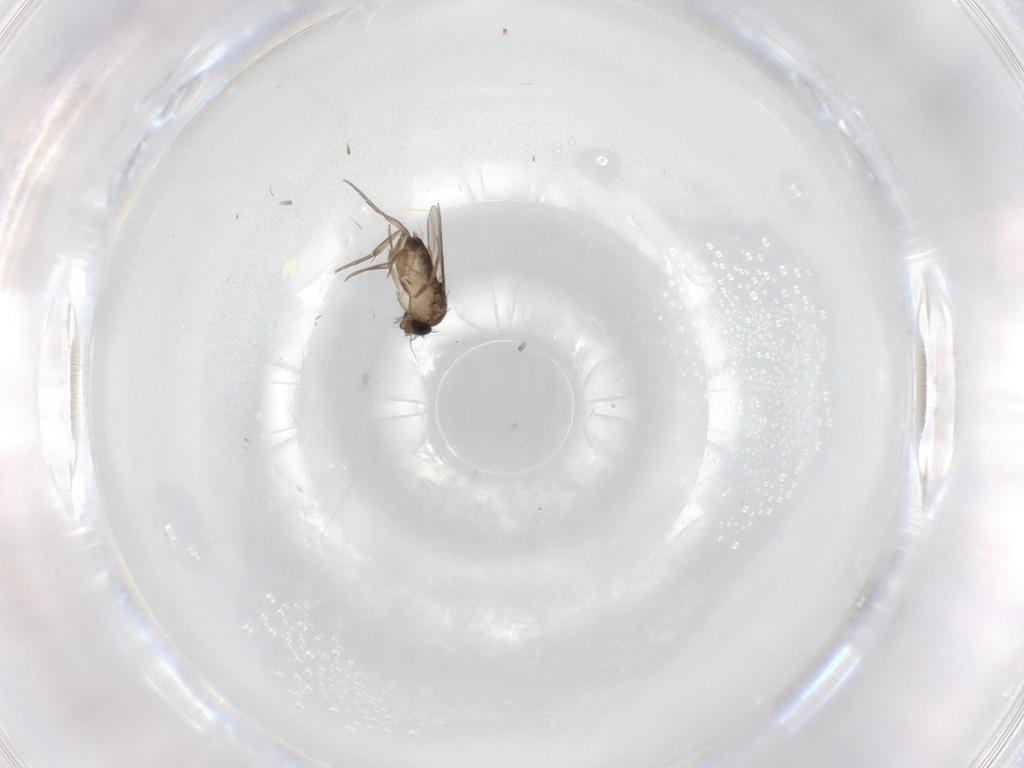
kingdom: Animalia
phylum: Arthropoda
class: Insecta
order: Diptera
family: Phoridae
